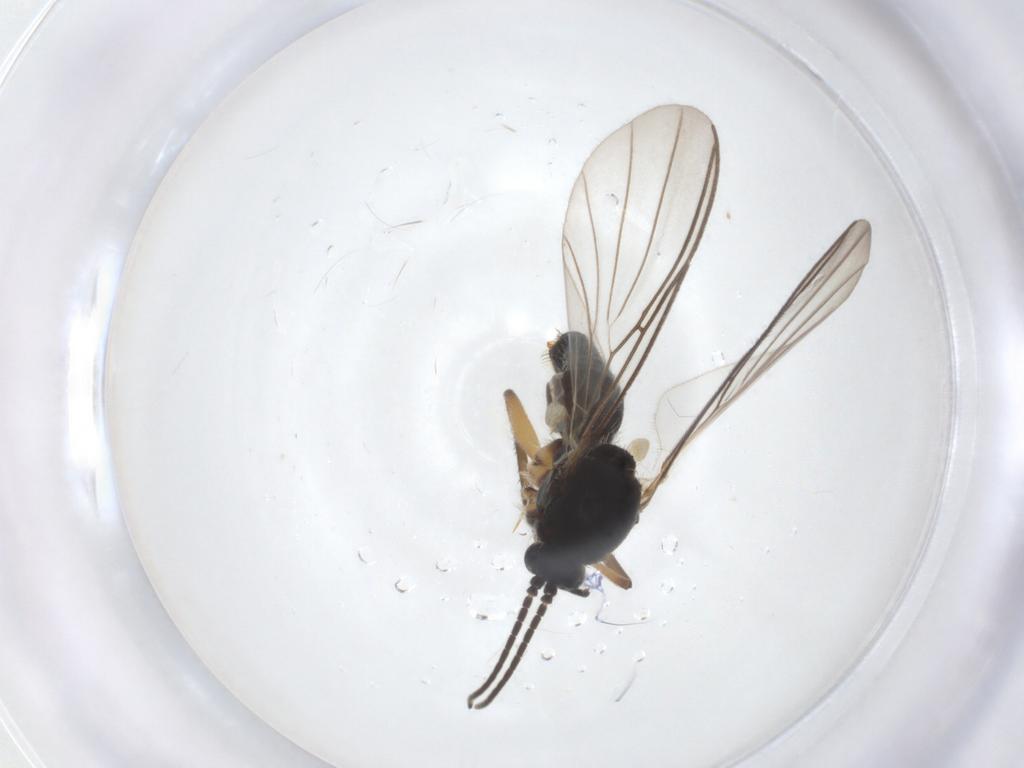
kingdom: Animalia
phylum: Arthropoda
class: Insecta
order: Diptera
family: Mycetophilidae
